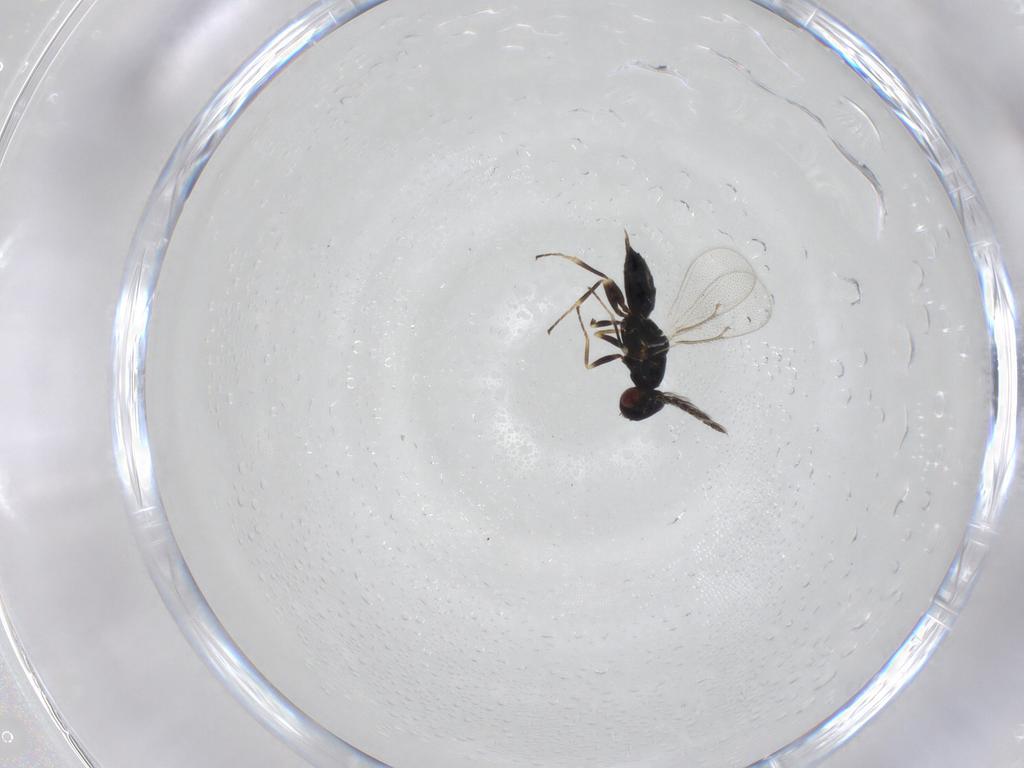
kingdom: Animalia
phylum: Arthropoda
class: Insecta
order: Hymenoptera
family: Eulophidae
